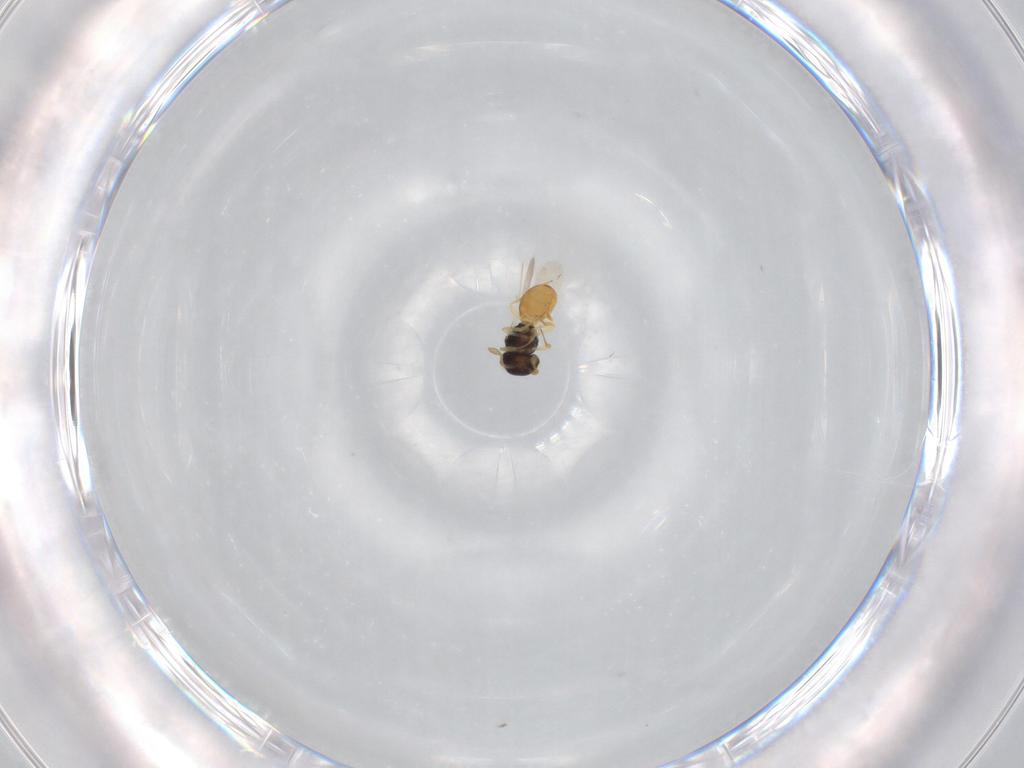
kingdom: Animalia
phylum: Arthropoda
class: Insecta
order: Hymenoptera
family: Scelionidae
